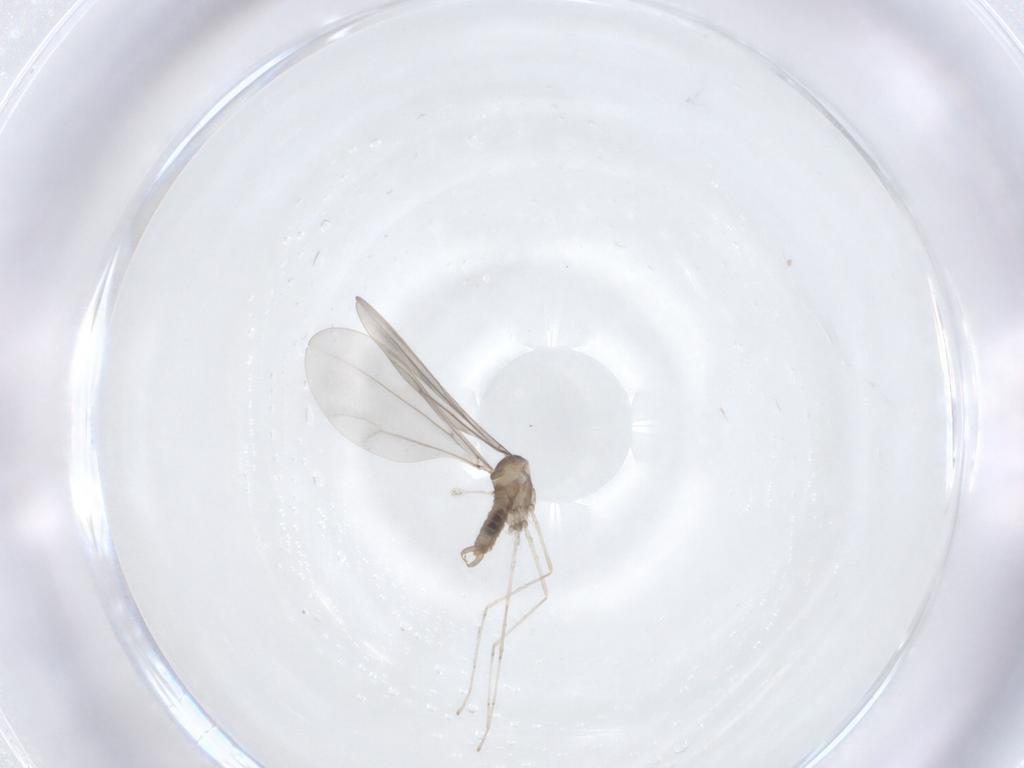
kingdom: Animalia
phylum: Arthropoda
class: Insecta
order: Diptera
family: Cecidomyiidae
